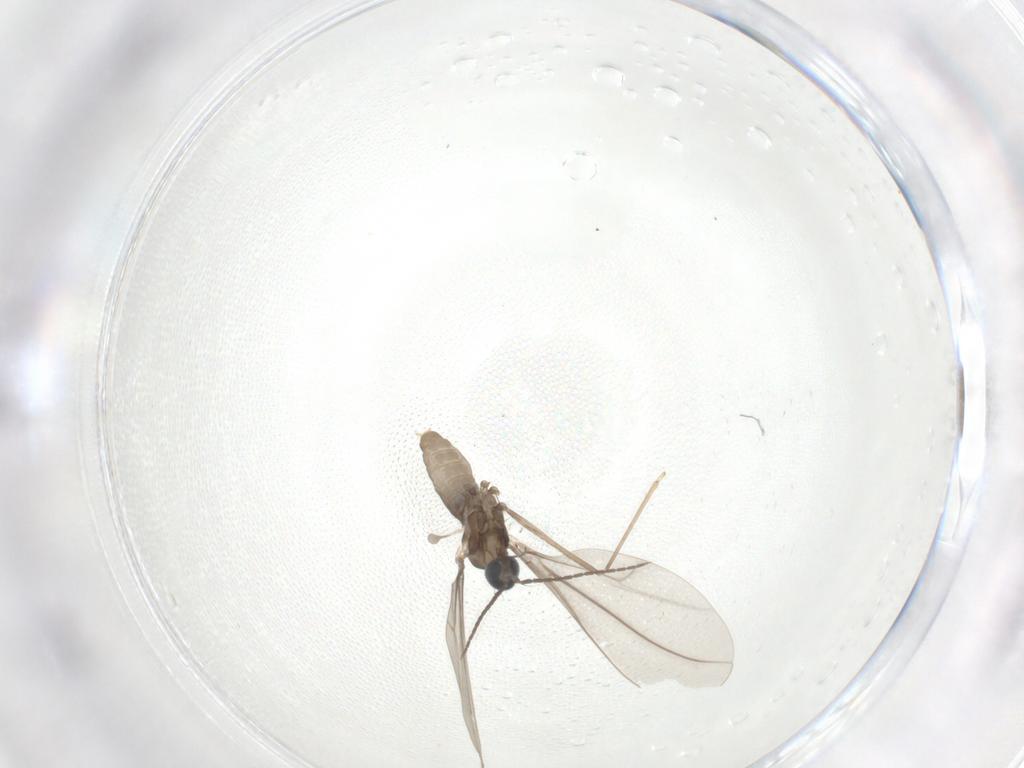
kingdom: Animalia
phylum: Arthropoda
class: Insecta
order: Diptera
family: Cecidomyiidae
